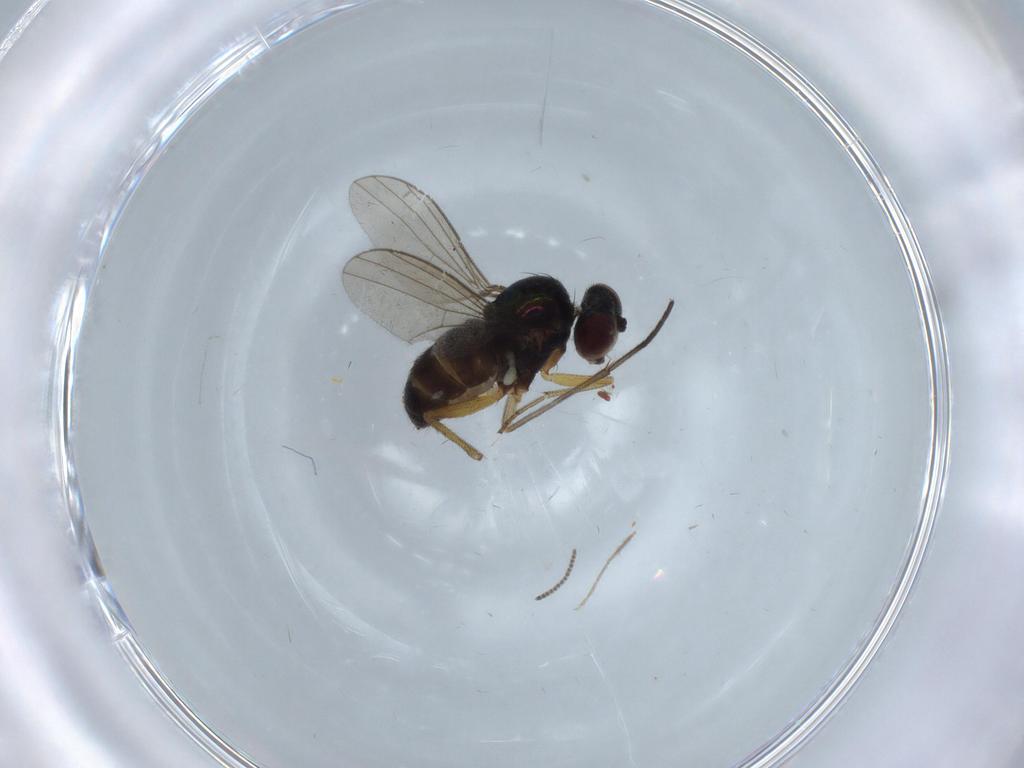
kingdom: Animalia
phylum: Arthropoda
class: Insecta
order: Diptera
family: Dolichopodidae
